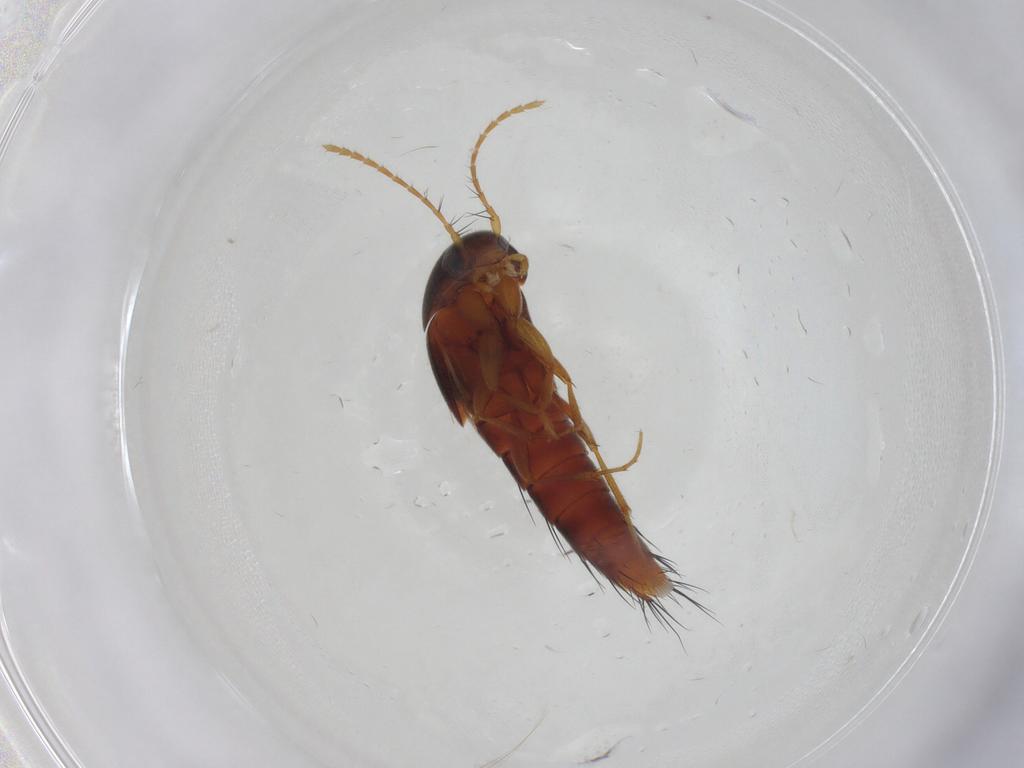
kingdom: Animalia
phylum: Arthropoda
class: Insecta
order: Coleoptera
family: Staphylinidae
